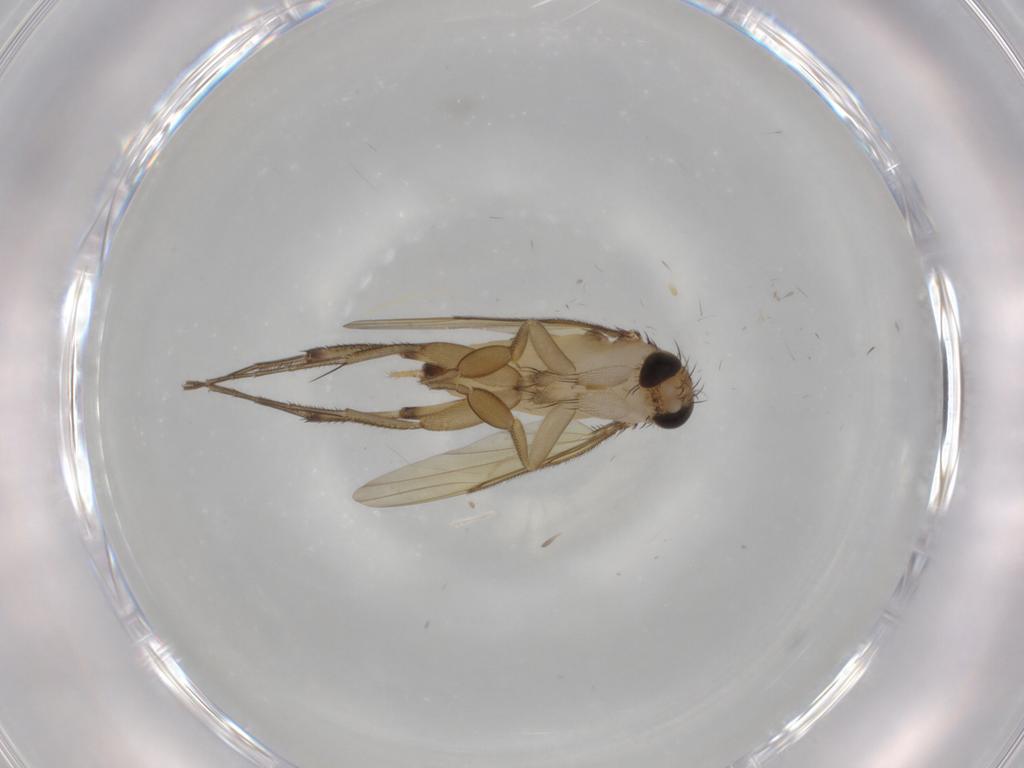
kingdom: Animalia
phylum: Arthropoda
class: Insecta
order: Diptera
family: Phoridae
